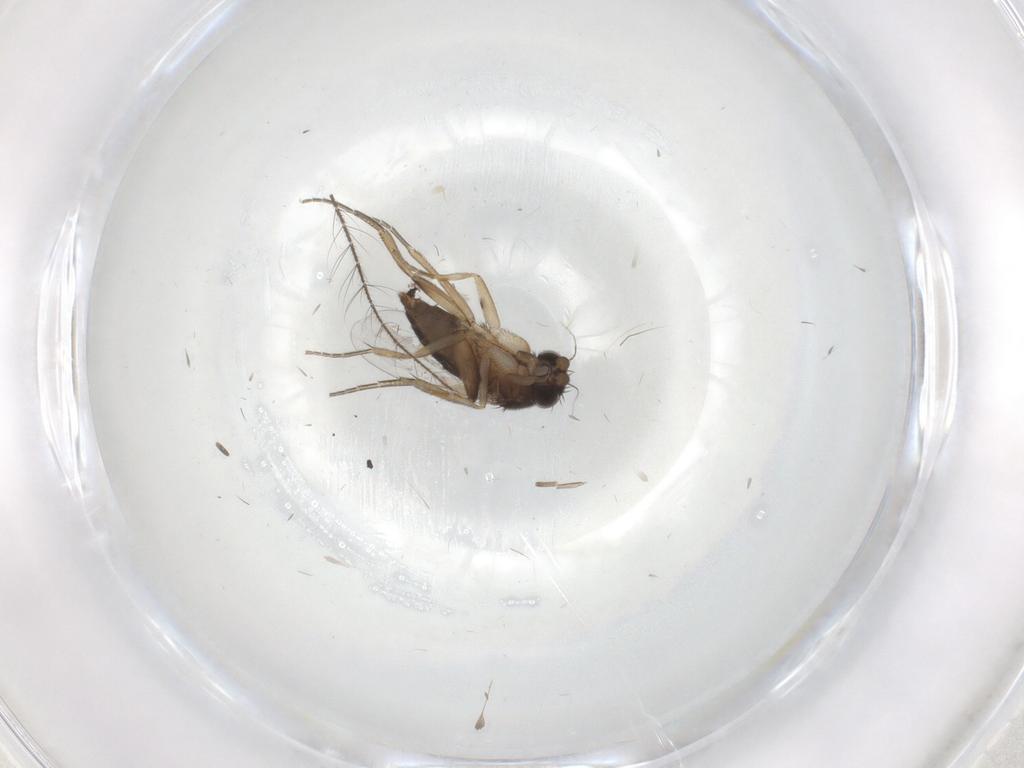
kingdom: Animalia
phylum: Arthropoda
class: Insecta
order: Diptera
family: Phoridae
